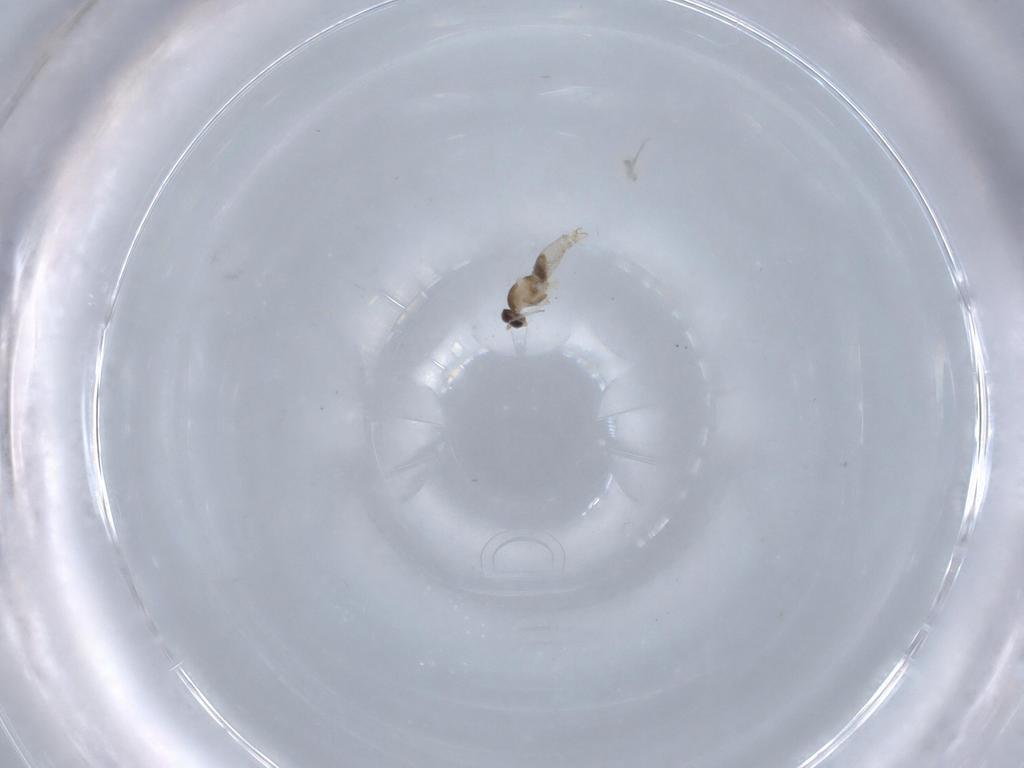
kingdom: Animalia
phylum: Arthropoda
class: Insecta
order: Diptera
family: Cecidomyiidae
